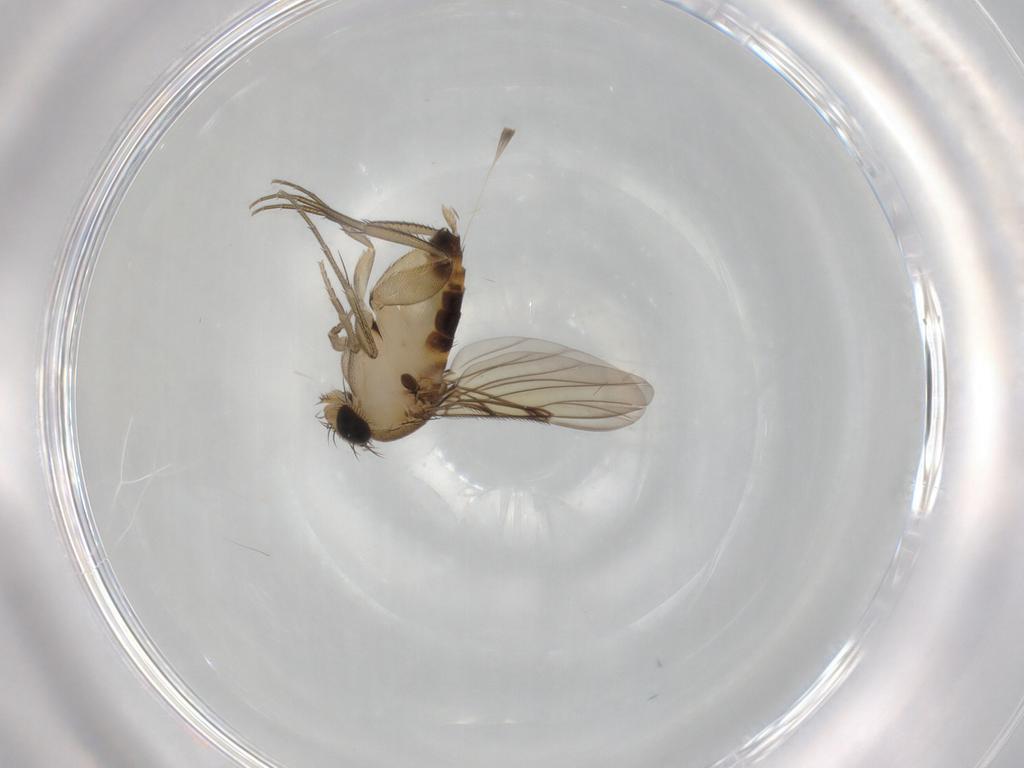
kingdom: Animalia
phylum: Arthropoda
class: Insecta
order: Diptera
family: Phoridae
